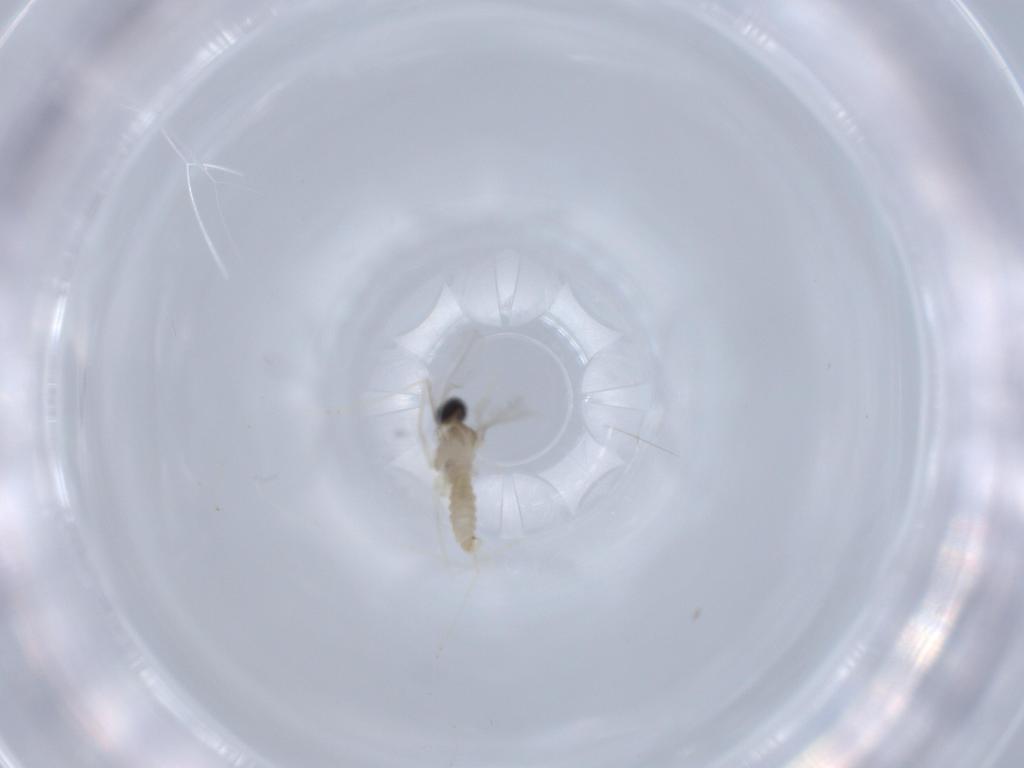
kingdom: Animalia
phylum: Arthropoda
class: Insecta
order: Diptera
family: Cecidomyiidae
